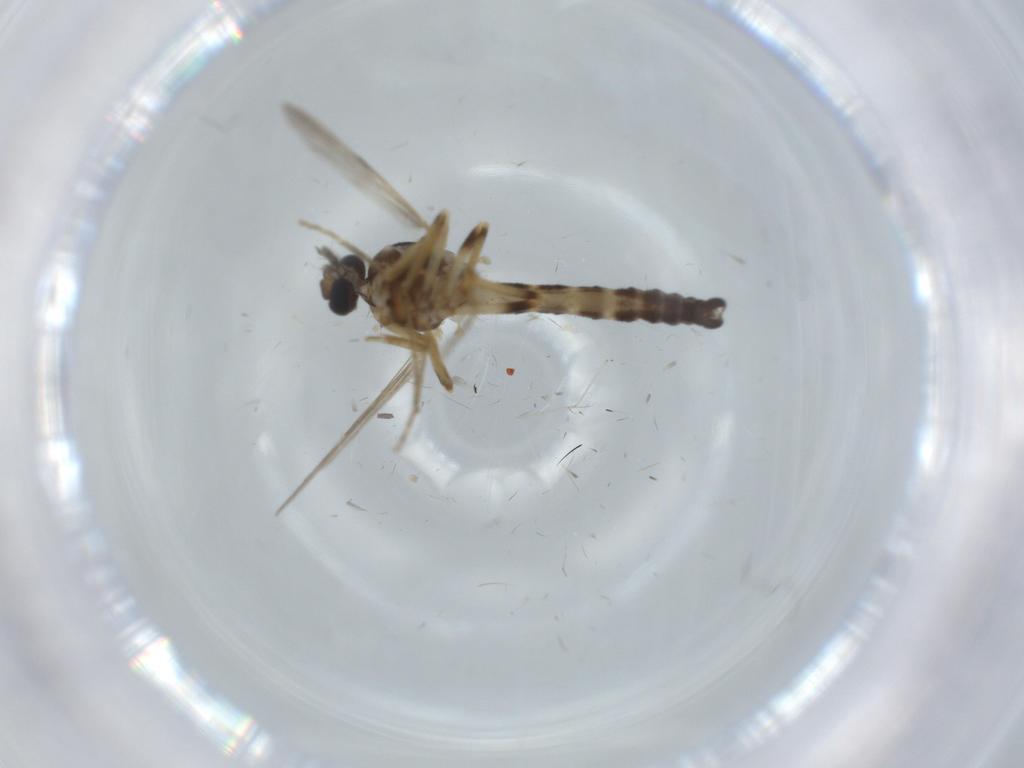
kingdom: Animalia
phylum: Arthropoda
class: Insecta
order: Diptera
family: Ceratopogonidae
